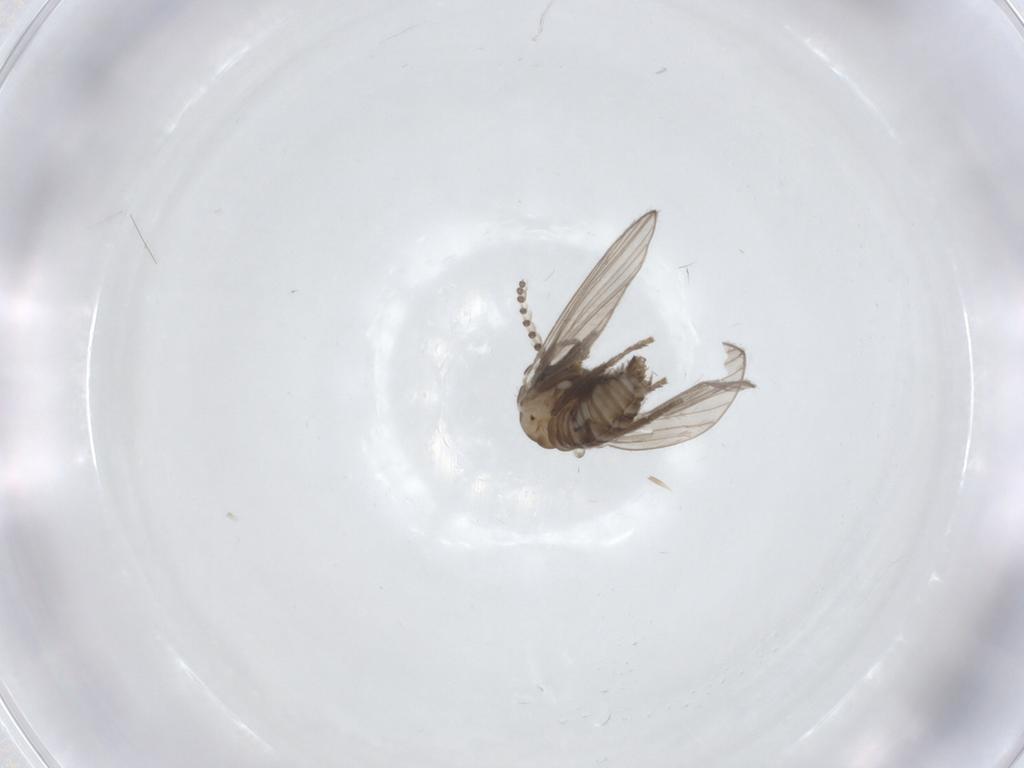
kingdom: Animalia
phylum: Arthropoda
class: Insecta
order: Diptera
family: Psychodidae
